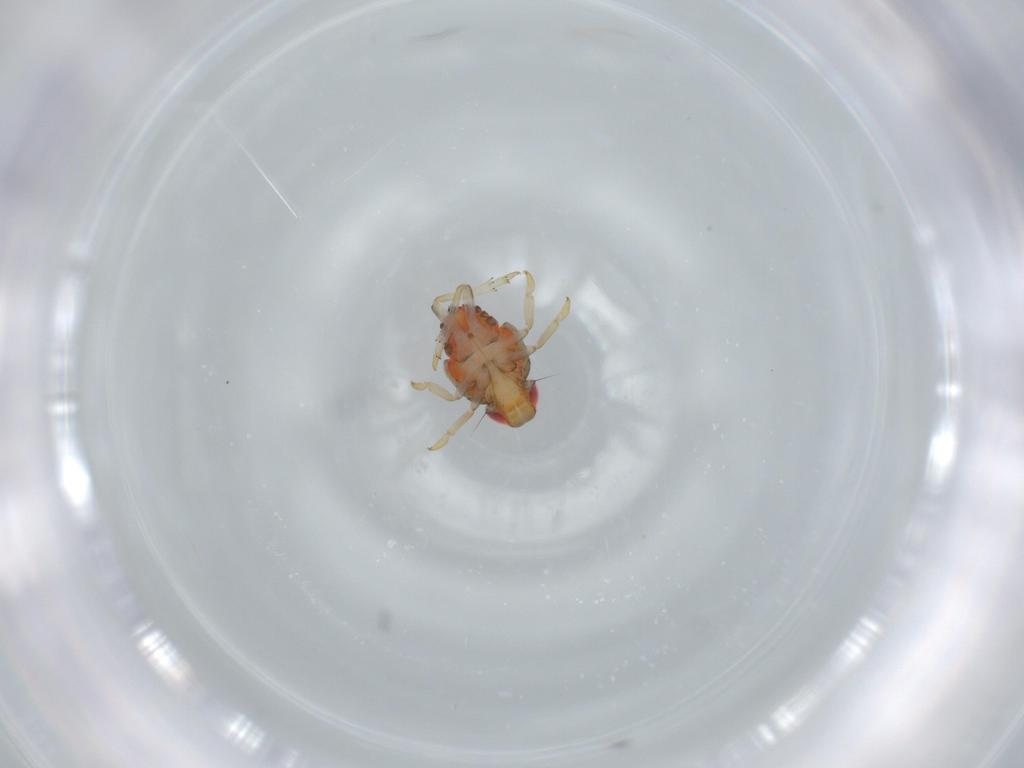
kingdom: Animalia
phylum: Arthropoda
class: Insecta
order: Hemiptera
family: Issidae
